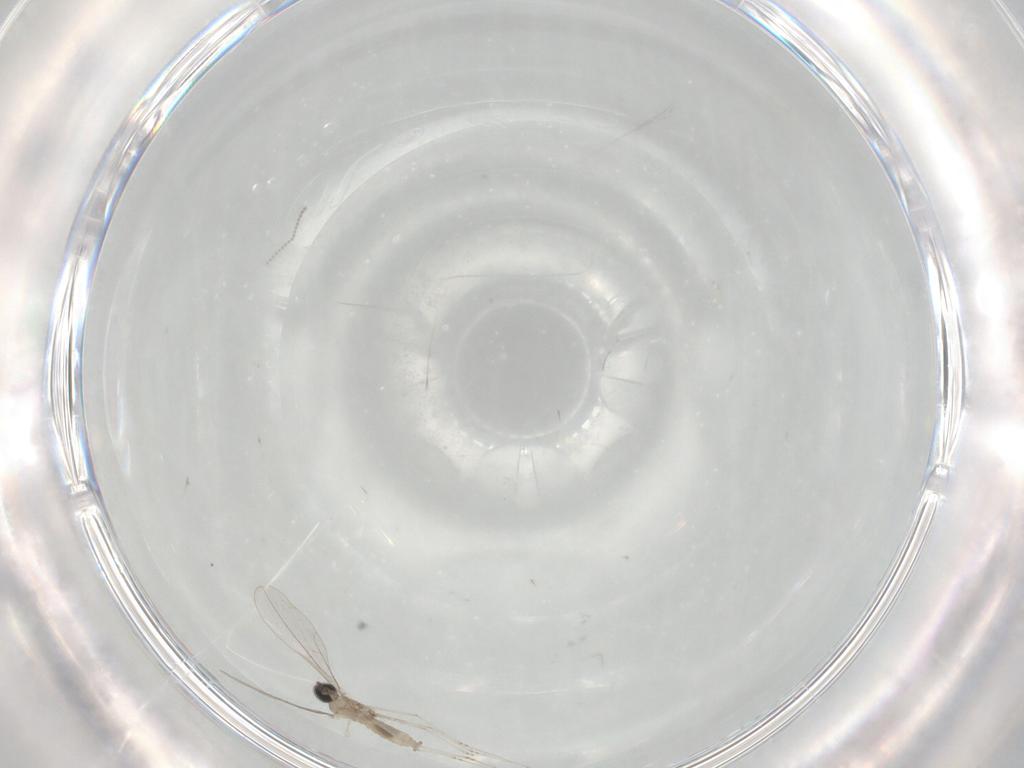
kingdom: Animalia
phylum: Arthropoda
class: Insecta
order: Diptera
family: Cecidomyiidae
